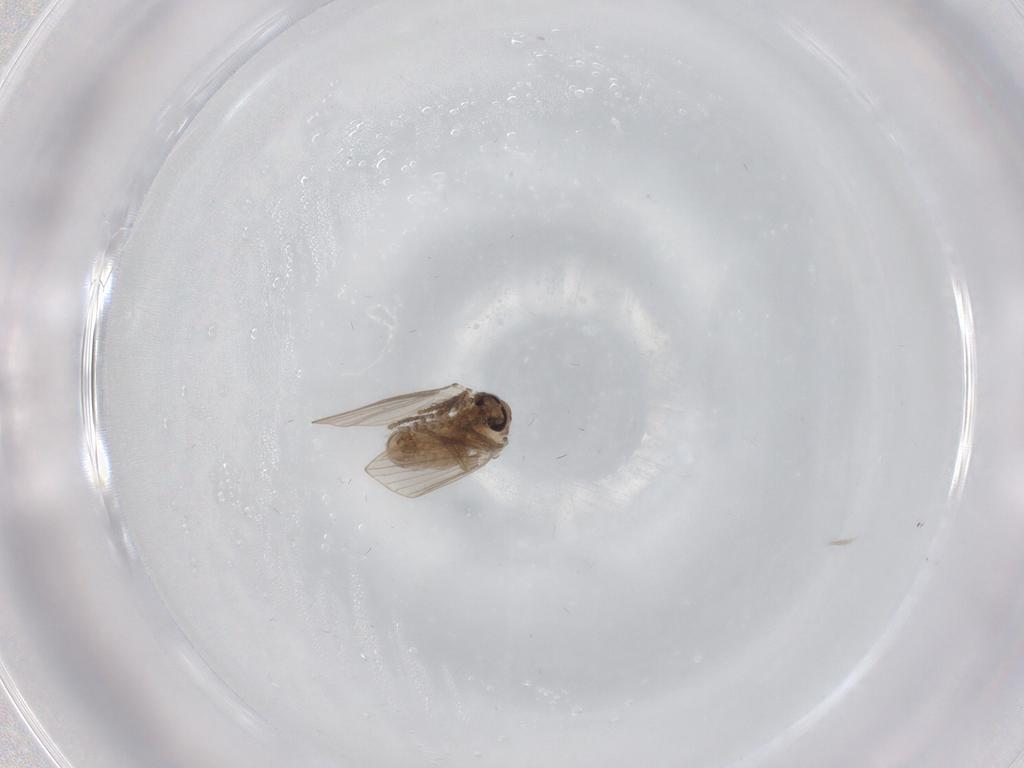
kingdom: Animalia
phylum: Arthropoda
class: Insecta
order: Diptera
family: Psychodidae
